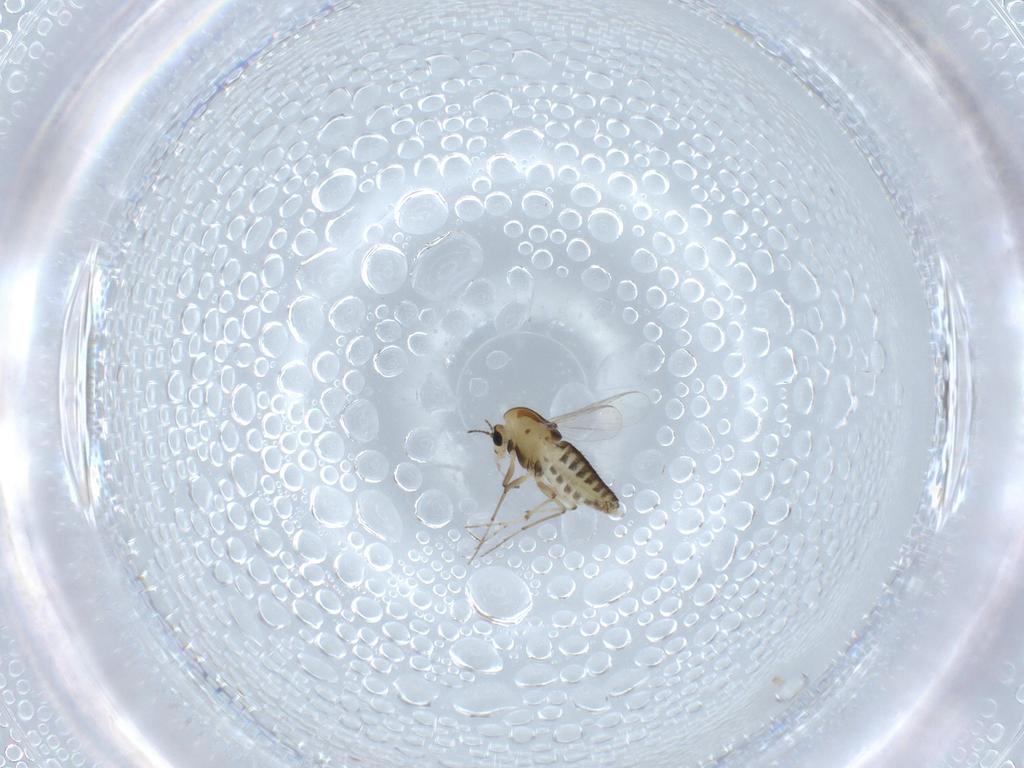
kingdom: Animalia
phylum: Arthropoda
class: Insecta
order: Diptera
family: Chironomidae
